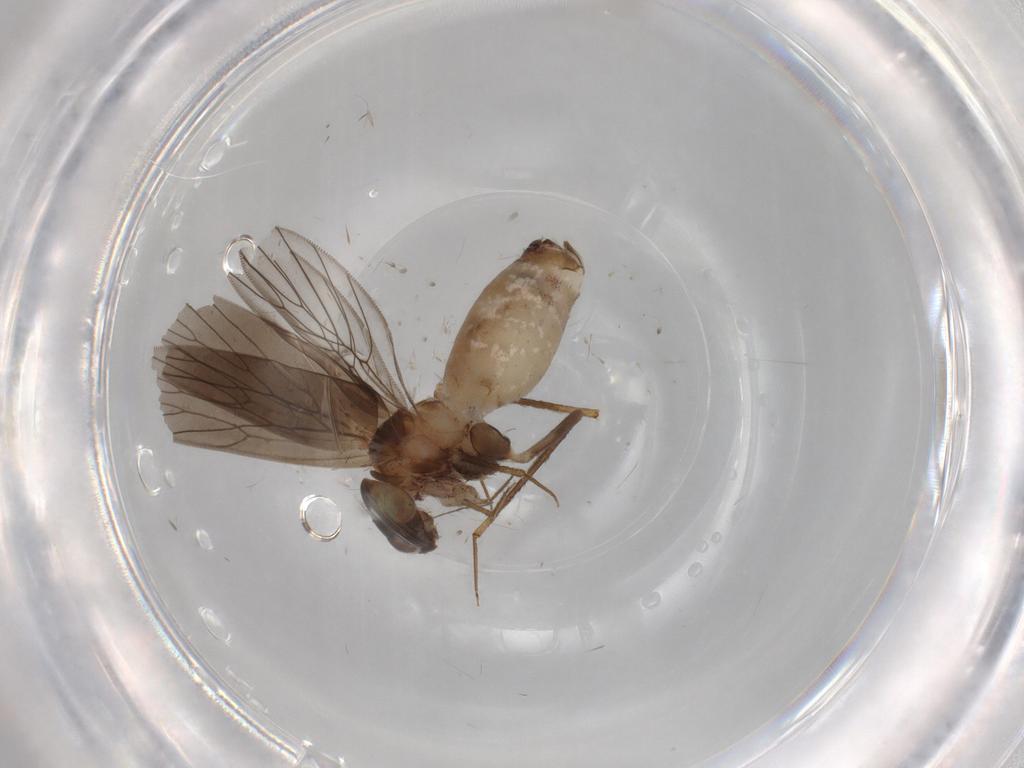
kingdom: Animalia
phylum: Arthropoda
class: Insecta
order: Psocodea
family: Lepidopsocidae
